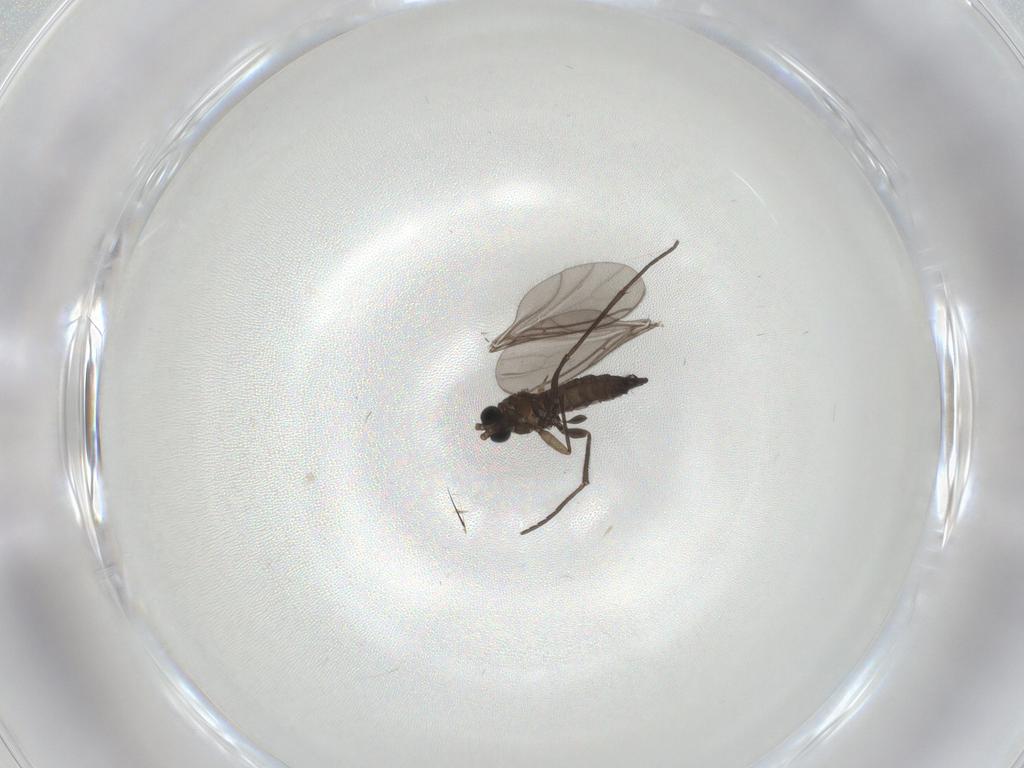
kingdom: Animalia
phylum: Arthropoda
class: Insecta
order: Diptera
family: Sciaridae
